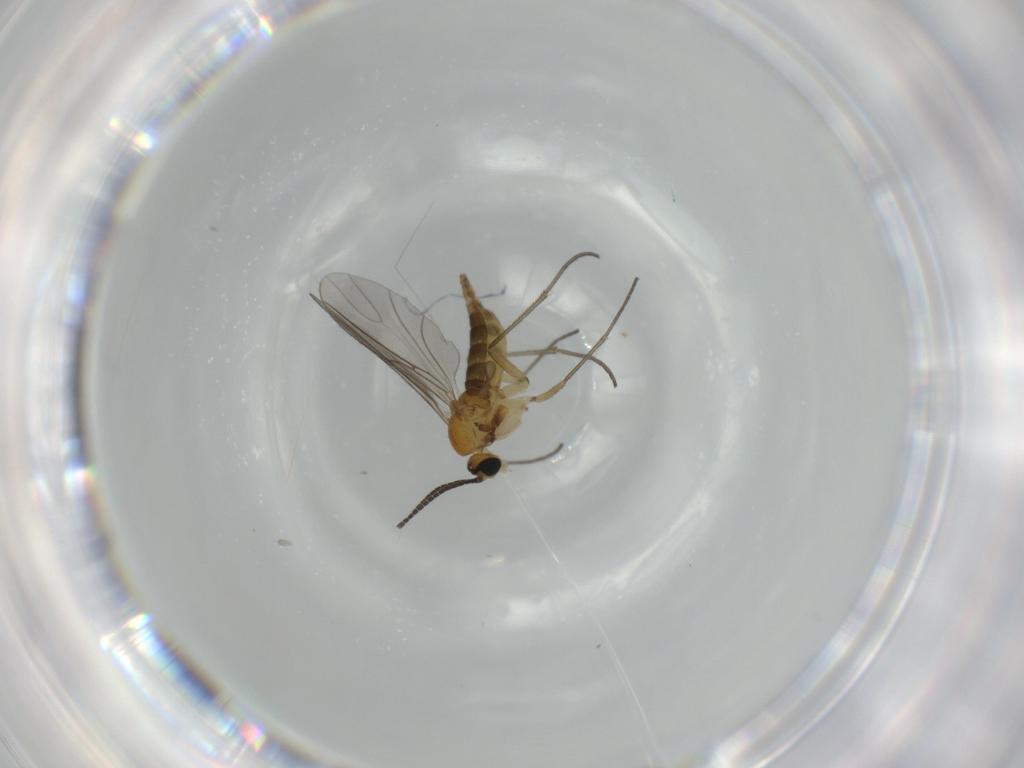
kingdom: Animalia
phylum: Arthropoda
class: Insecta
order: Diptera
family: Sciaridae
